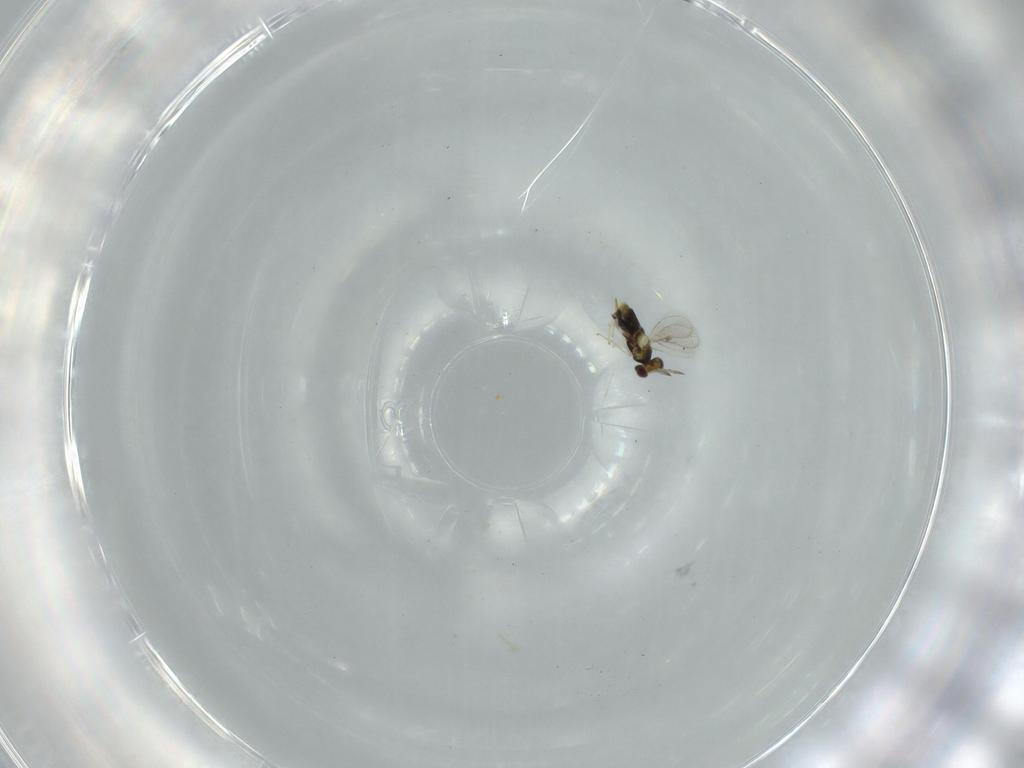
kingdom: Animalia
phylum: Arthropoda
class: Insecta
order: Hymenoptera
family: Aphelinidae
